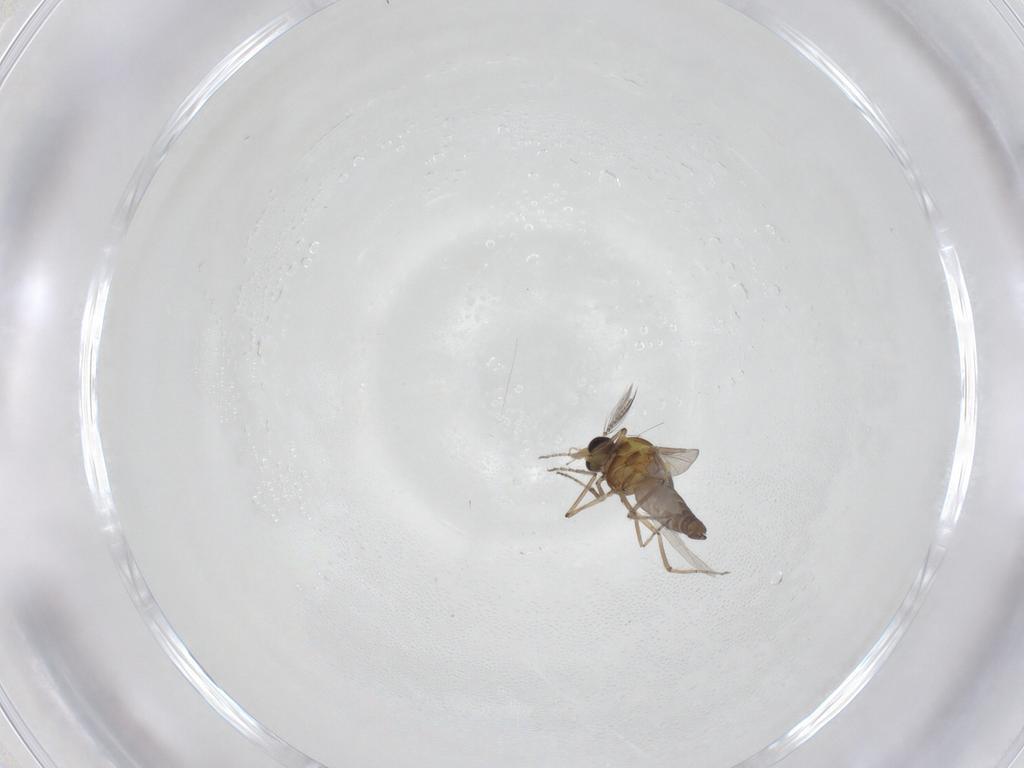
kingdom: Animalia
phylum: Arthropoda
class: Insecta
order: Diptera
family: Ceratopogonidae
